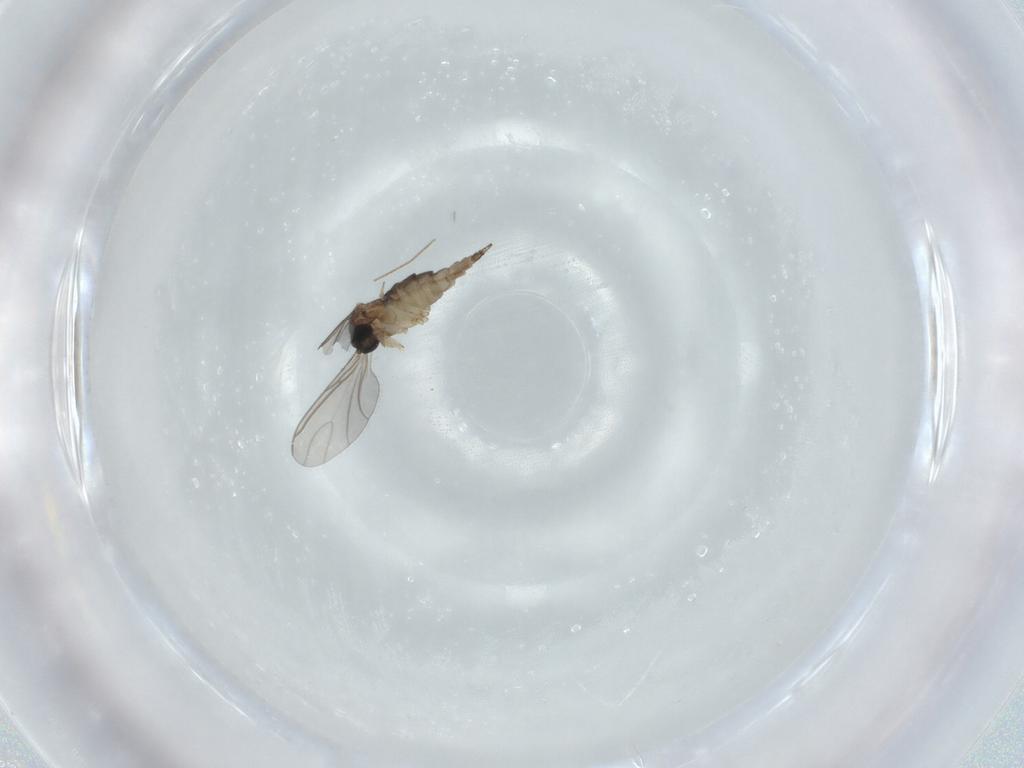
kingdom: Animalia
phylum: Arthropoda
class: Insecta
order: Diptera
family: Sciaridae
